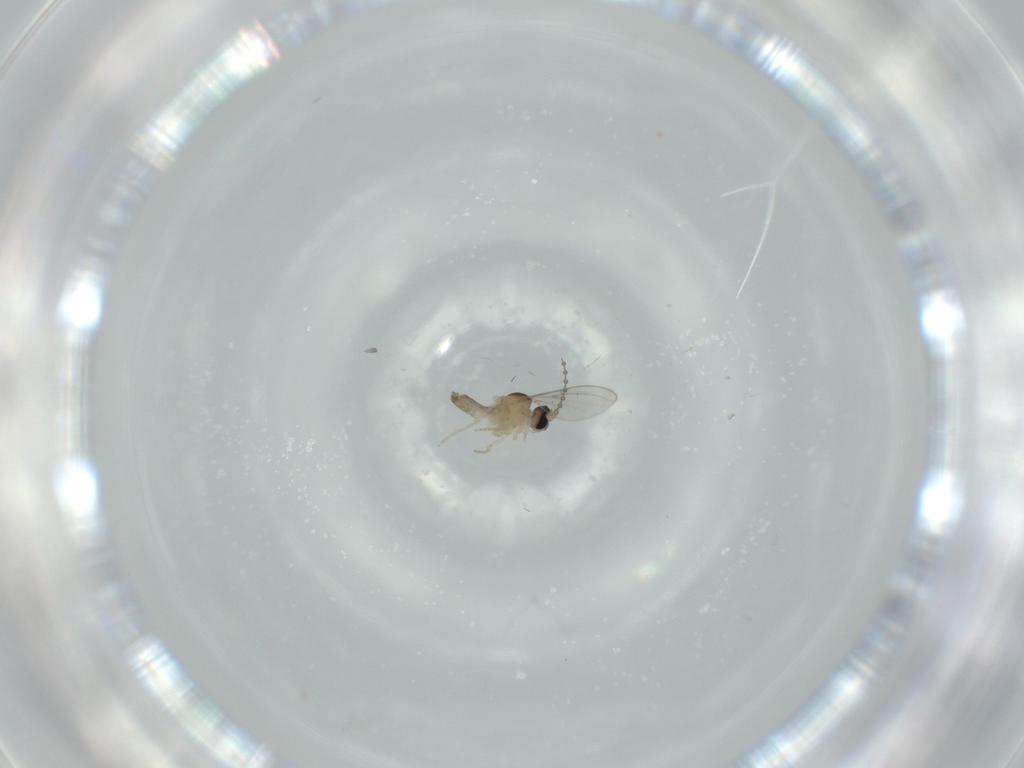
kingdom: Animalia
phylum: Arthropoda
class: Insecta
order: Diptera
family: Cecidomyiidae
